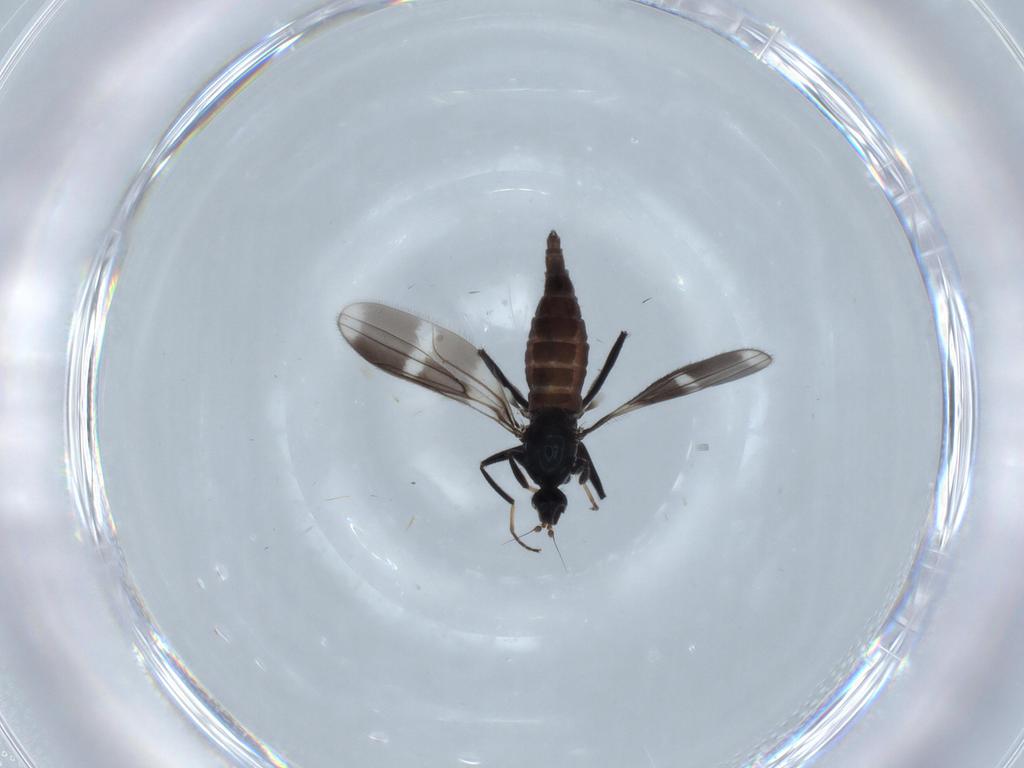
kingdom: Animalia
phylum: Arthropoda
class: Insecta
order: Diptera
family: Hybotidae
